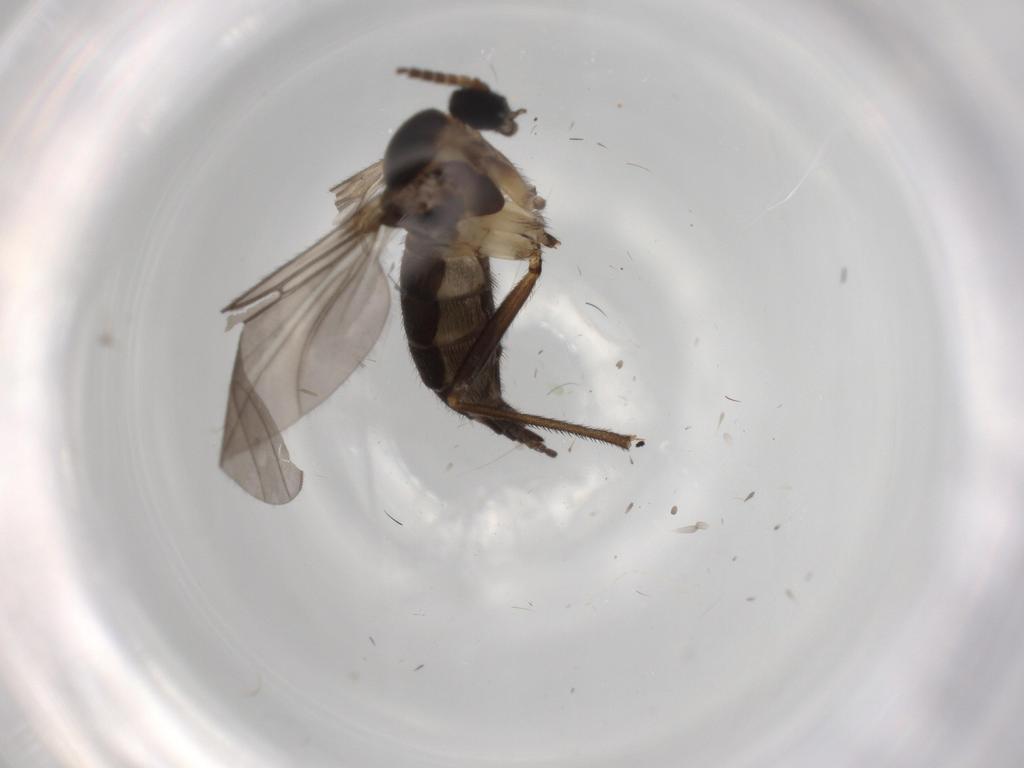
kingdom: Animalia
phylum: Arthropoda
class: Insecta
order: Diptera
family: Sciaridae
